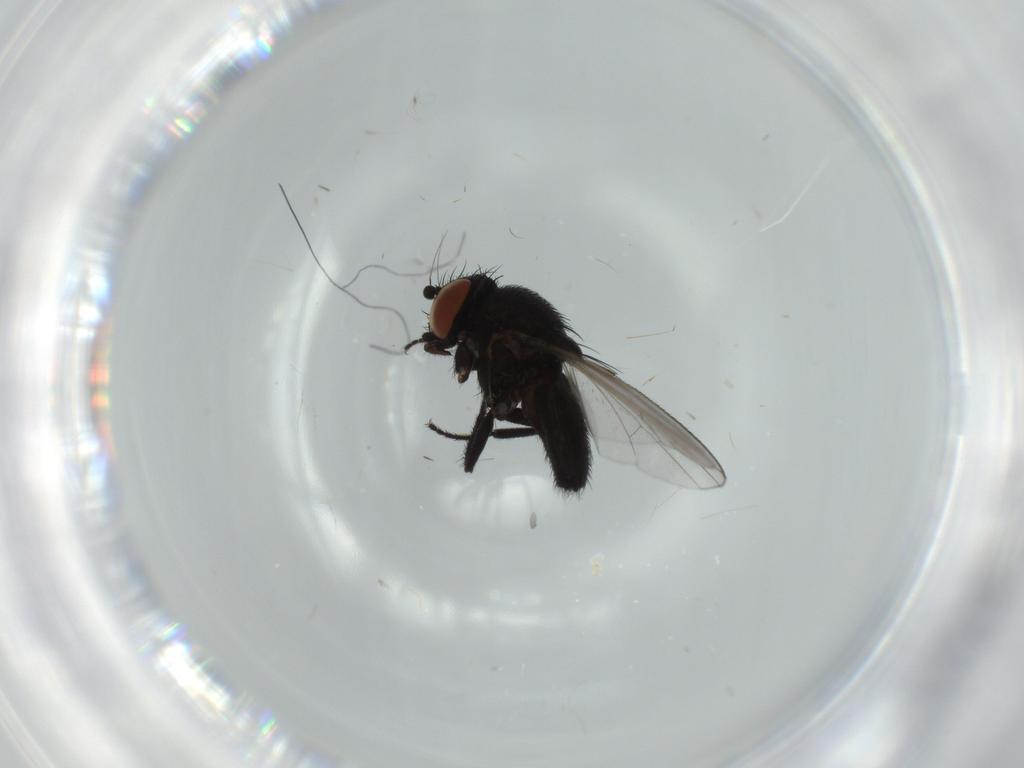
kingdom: Animalia
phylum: Arthropoda
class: Insecta
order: Diptera
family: Milichiidae
